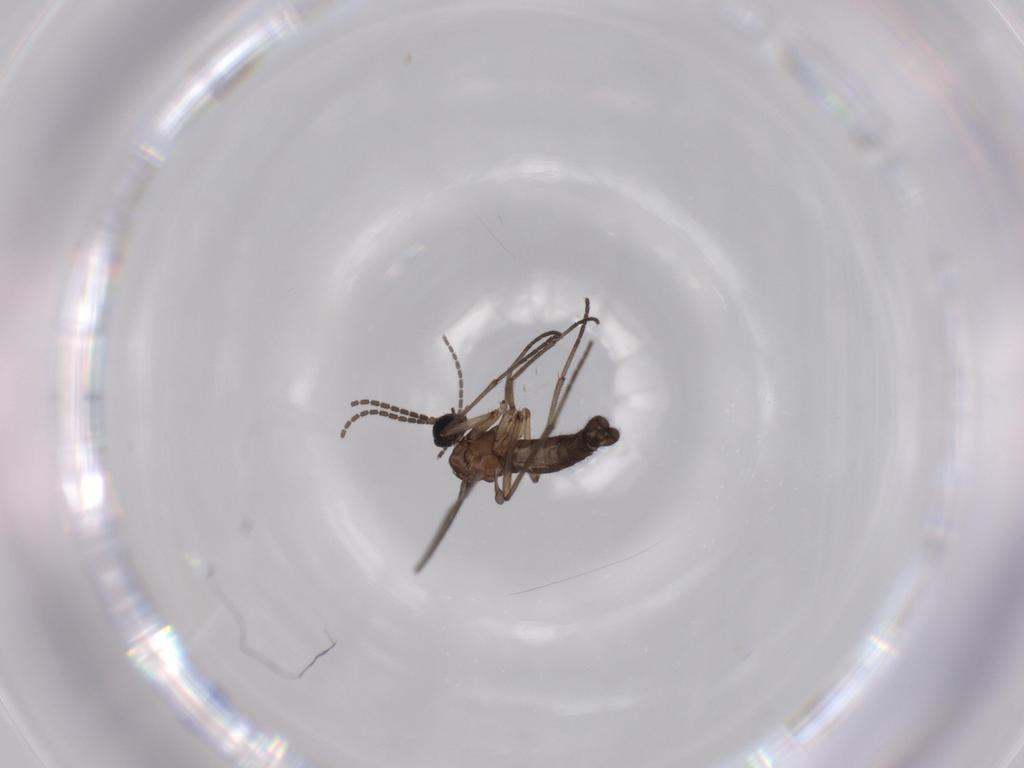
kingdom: Animalia
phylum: Arthropoda
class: Insecta
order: Diptera
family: Sciaridae
